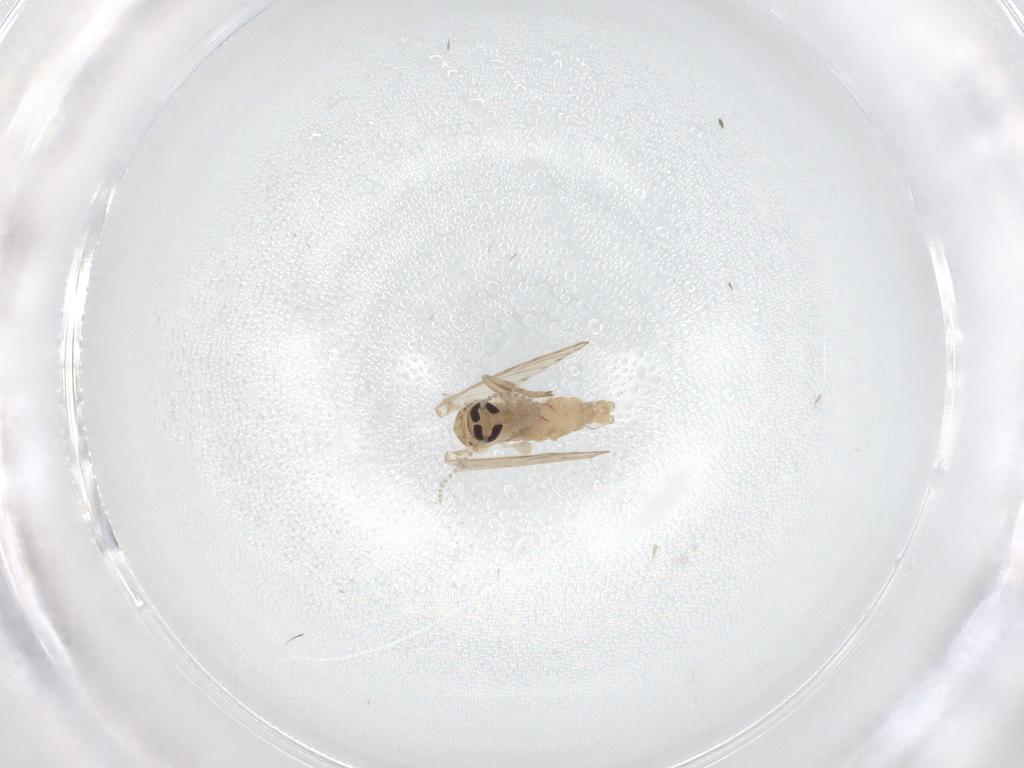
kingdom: Animalia
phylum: Arthropoda
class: Insecta
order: Diptera
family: Psychodidae
